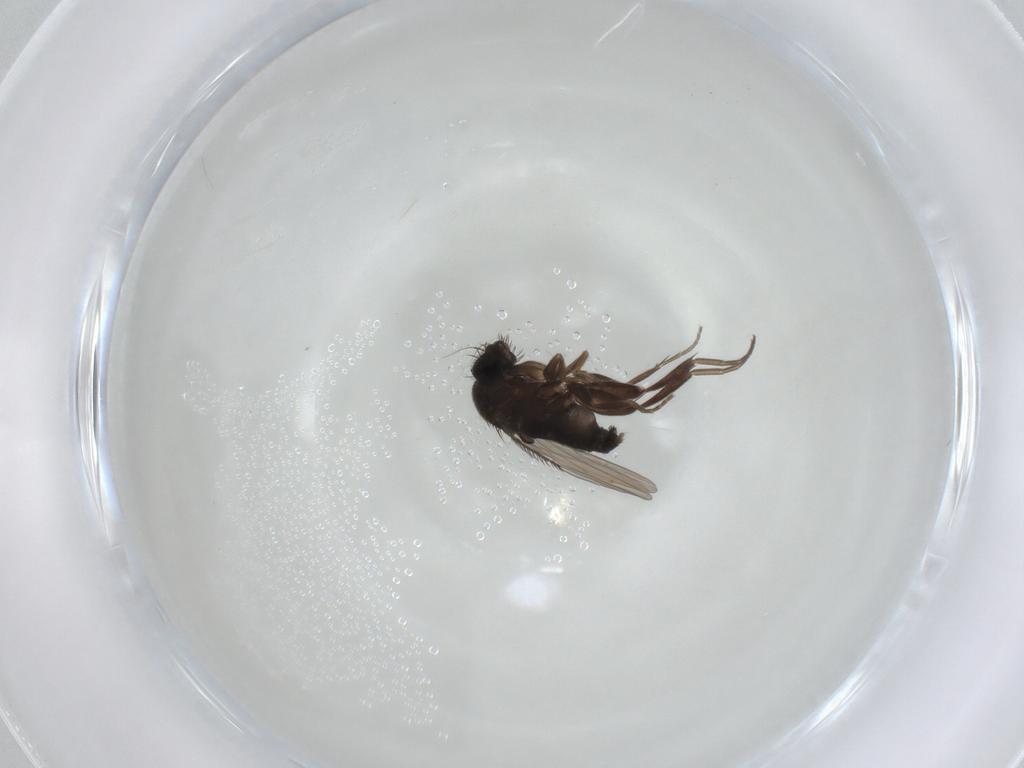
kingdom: Animalia
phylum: Arthropoda
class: Insecta
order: Diptera
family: Phoridae
